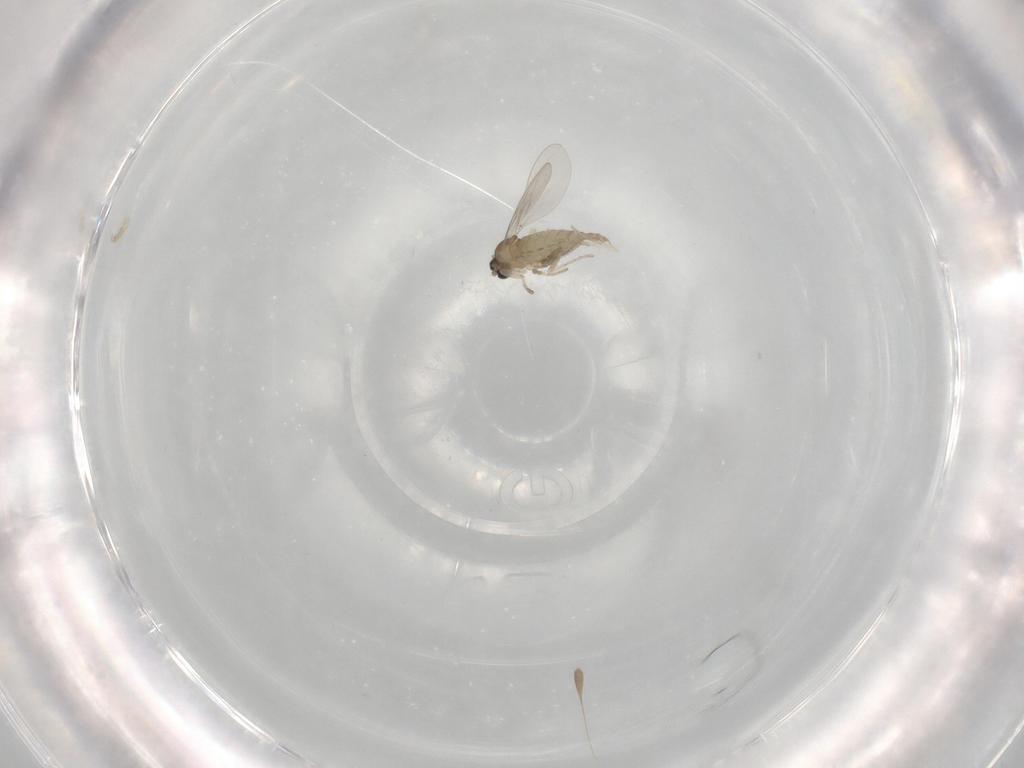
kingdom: Animalia
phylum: Arthropoda
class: Insecta
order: Diptera
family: Cecidomyiidae
